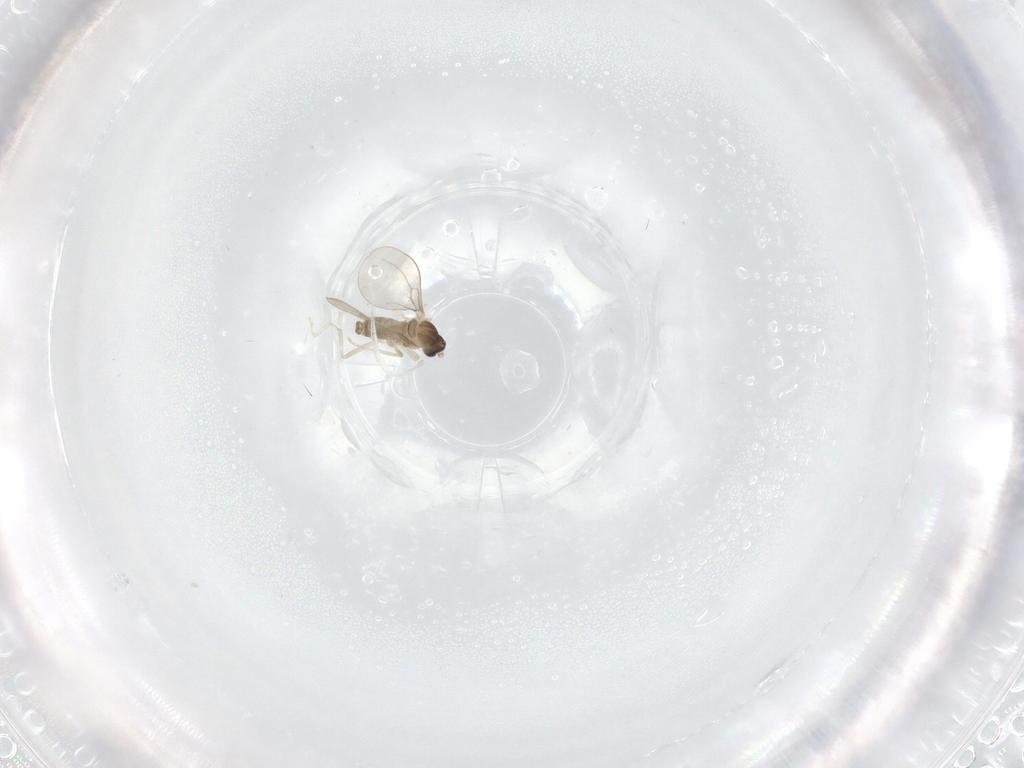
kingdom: Animalia
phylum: Arthropoda
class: Insecta
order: Diptera
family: Cecidomyiidae
